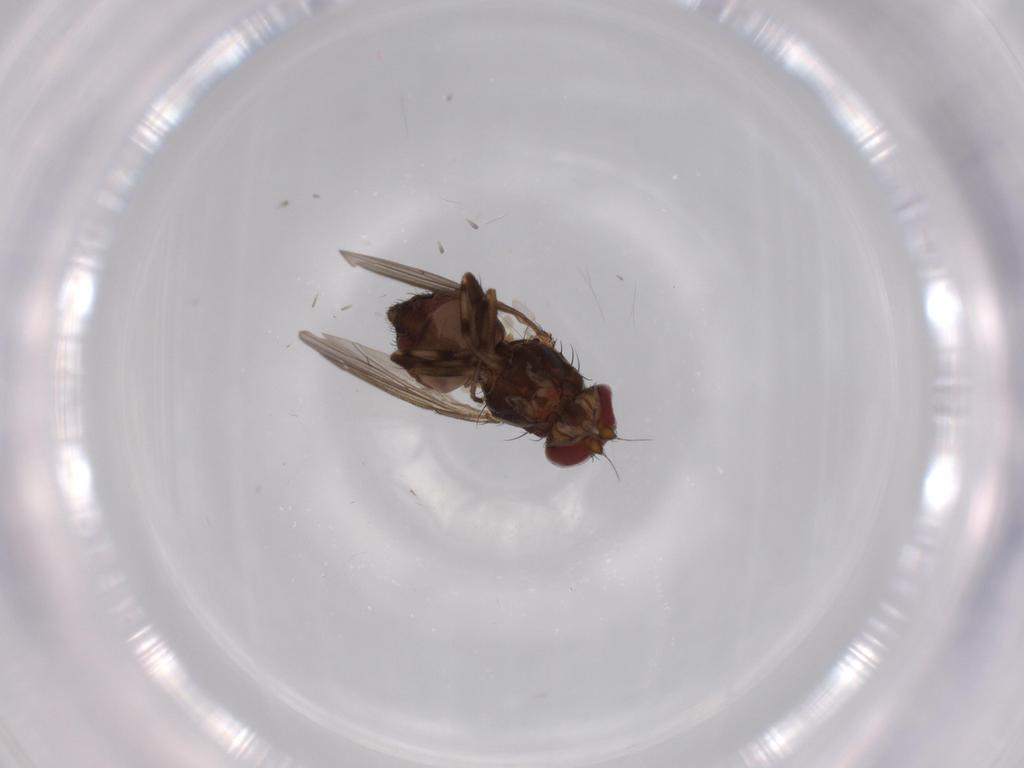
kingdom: Animalia
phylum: Arthropoda
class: Insecta
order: Diptera
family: Heleomyzidae
